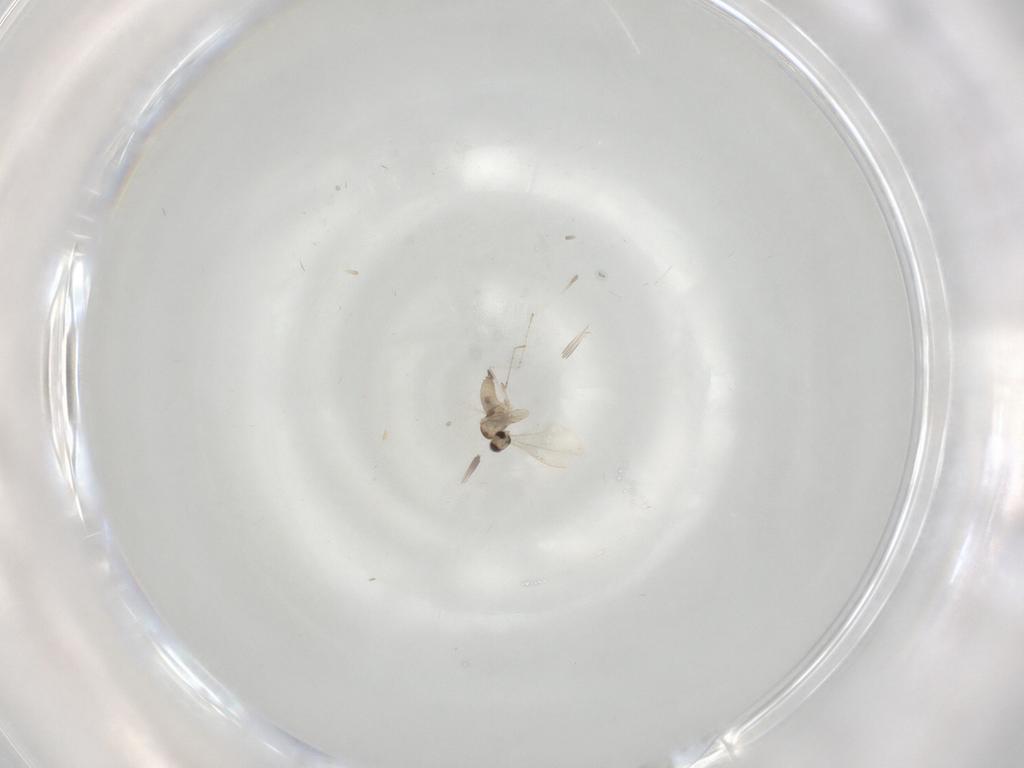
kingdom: Animalia
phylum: Arthropoda
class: Insecta
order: Diptera
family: Cecidomyiidae
